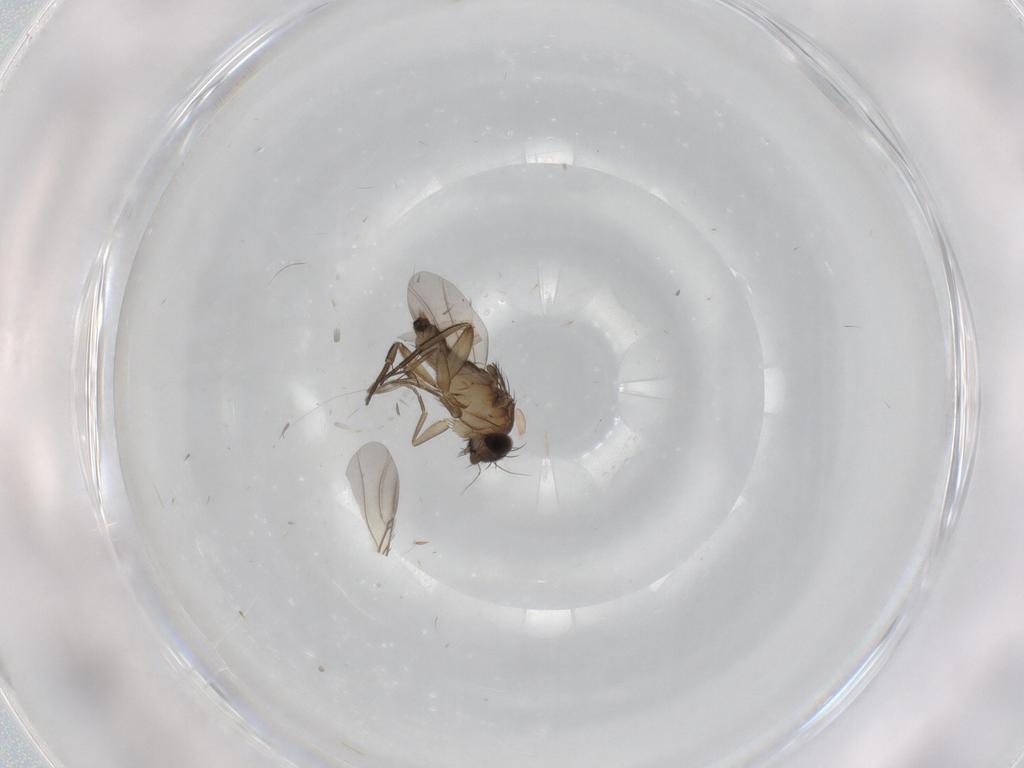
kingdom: Animalia
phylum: Arthropoda
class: Insecta
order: Diptera
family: Phoridae
